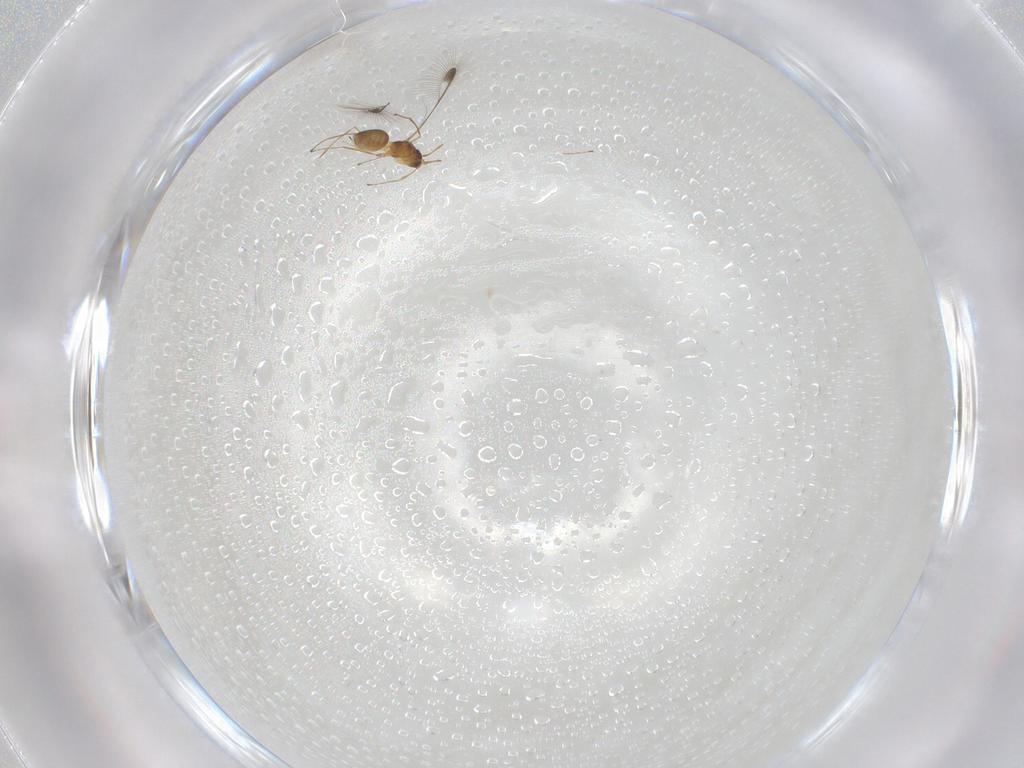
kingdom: Animalia
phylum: Arthropoda
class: Insecta
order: Hymenoptera
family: Mymaridae
